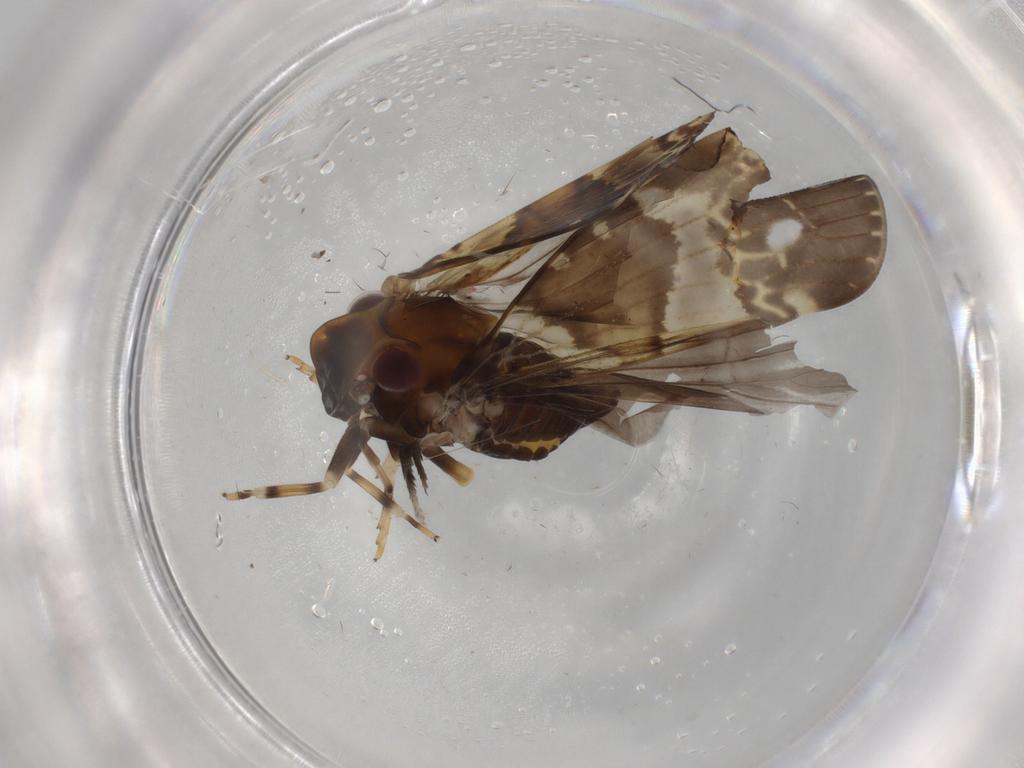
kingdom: Animalia
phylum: Arthropoda
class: Insecta
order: Hemiptera
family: Cixiidae
